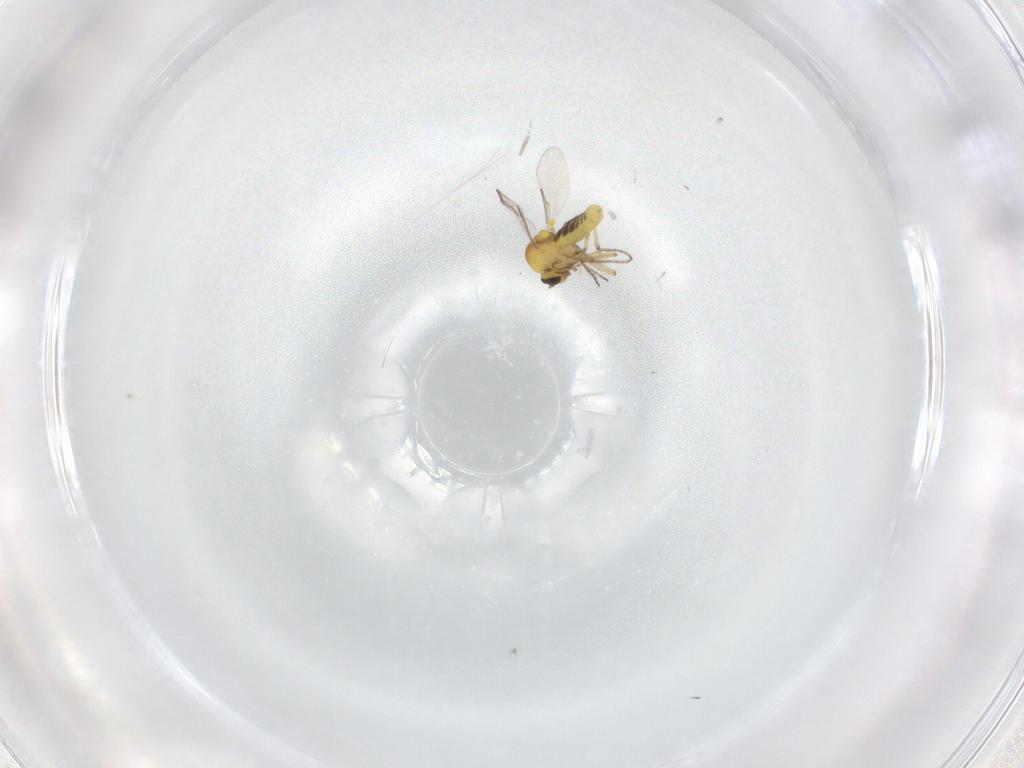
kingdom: Animalia
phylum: Arthropoda
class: Insecta
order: Diptera
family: Ceratopogonidae
